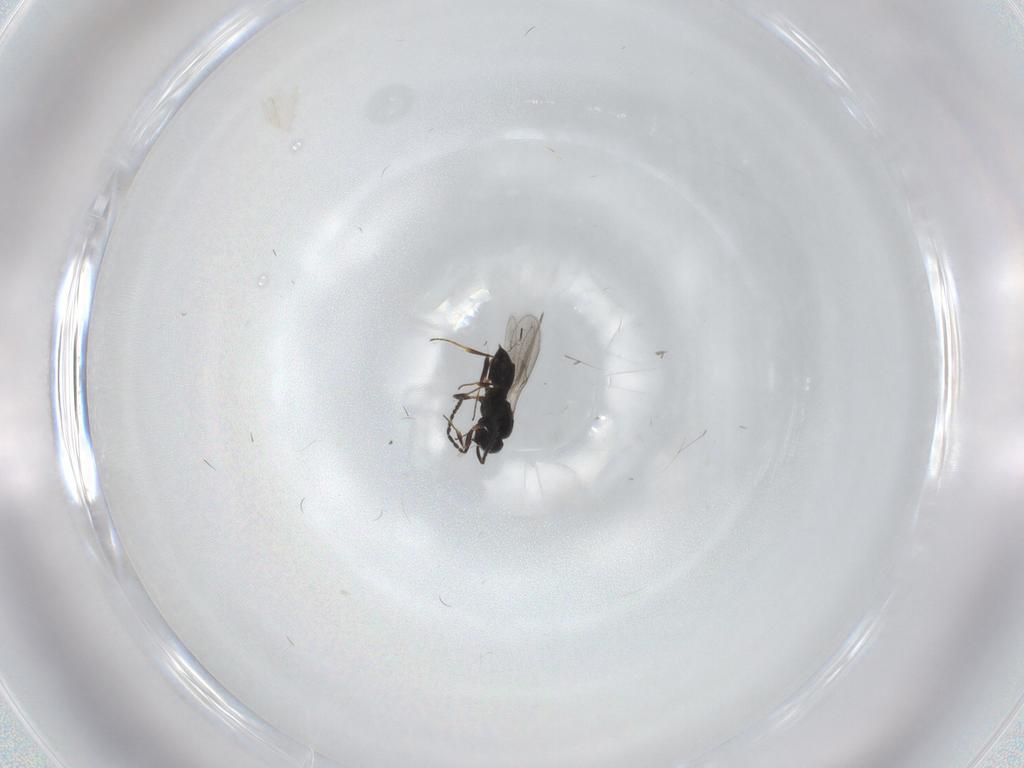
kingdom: Animalia
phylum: Arthropoda
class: Insecta
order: Hymenoptera
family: Scelionidae
